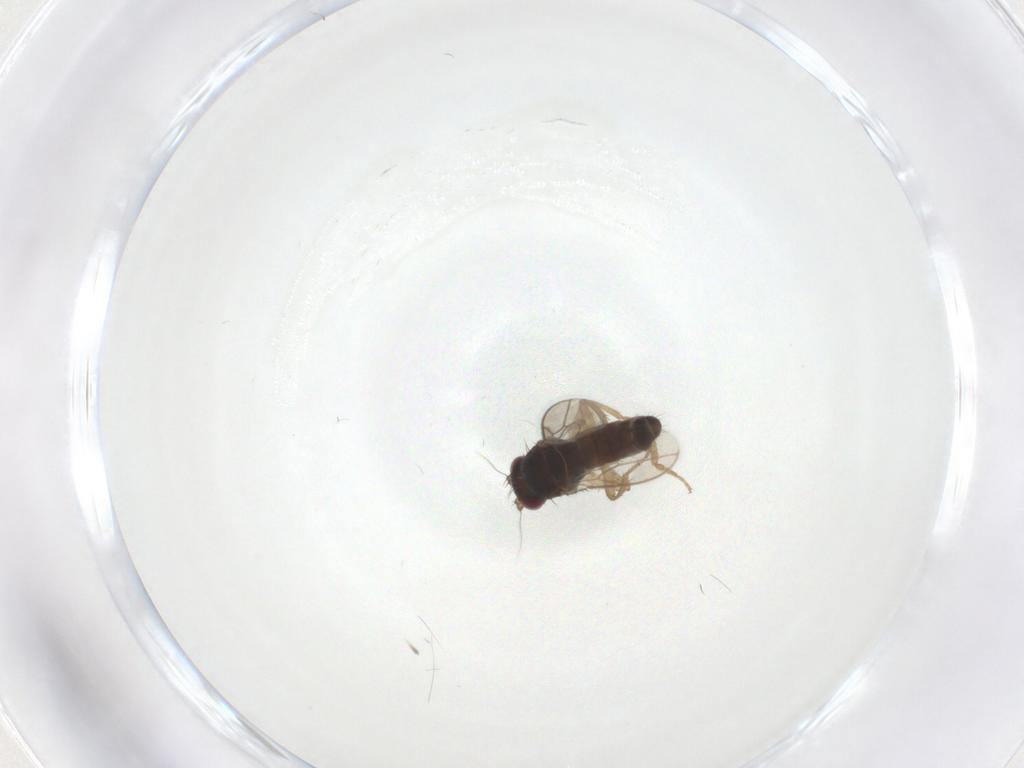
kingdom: Animalia
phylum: Arthropoda
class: Insecta
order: Diptera
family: Sphaeroceridae
